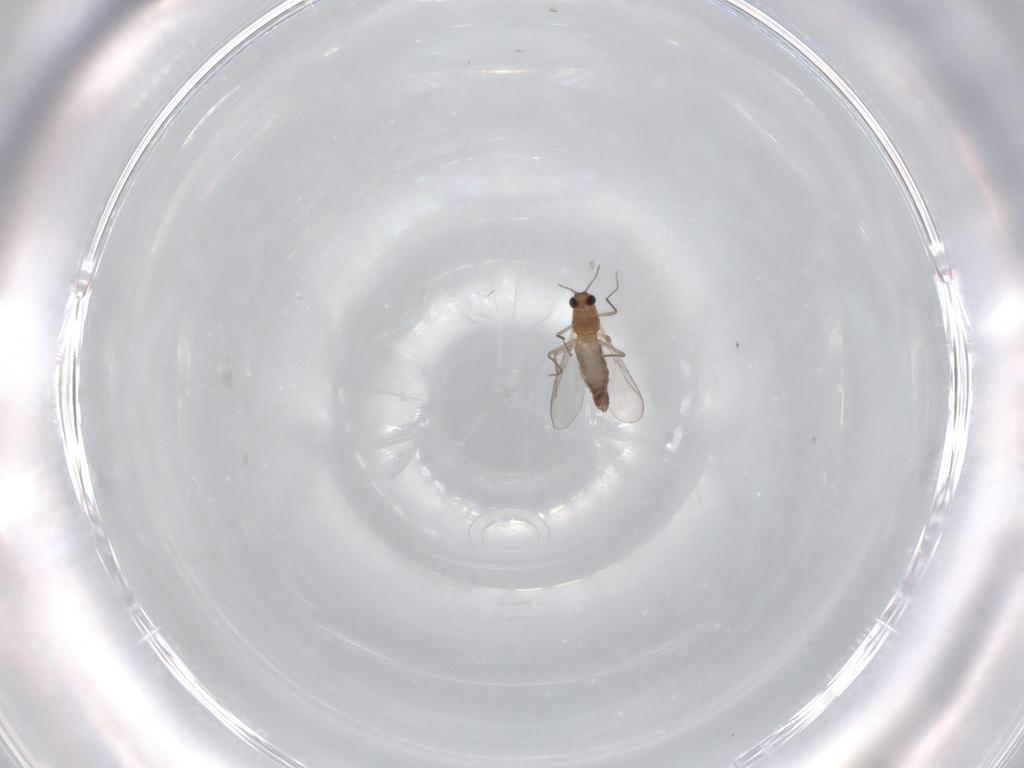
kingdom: Animalia
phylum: Arthropoda
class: Insecta
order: Diptera
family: Chironomidae
